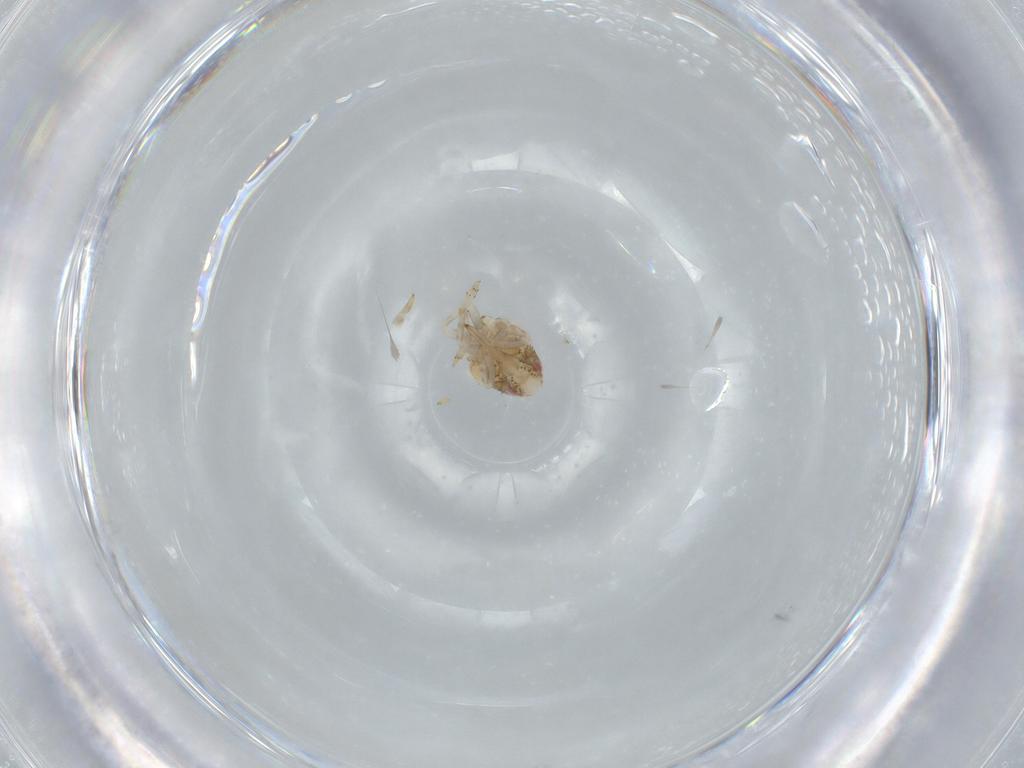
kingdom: Animalia
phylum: Arthropoda
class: Insecta
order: Hemiptera
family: Acanaloniidae
